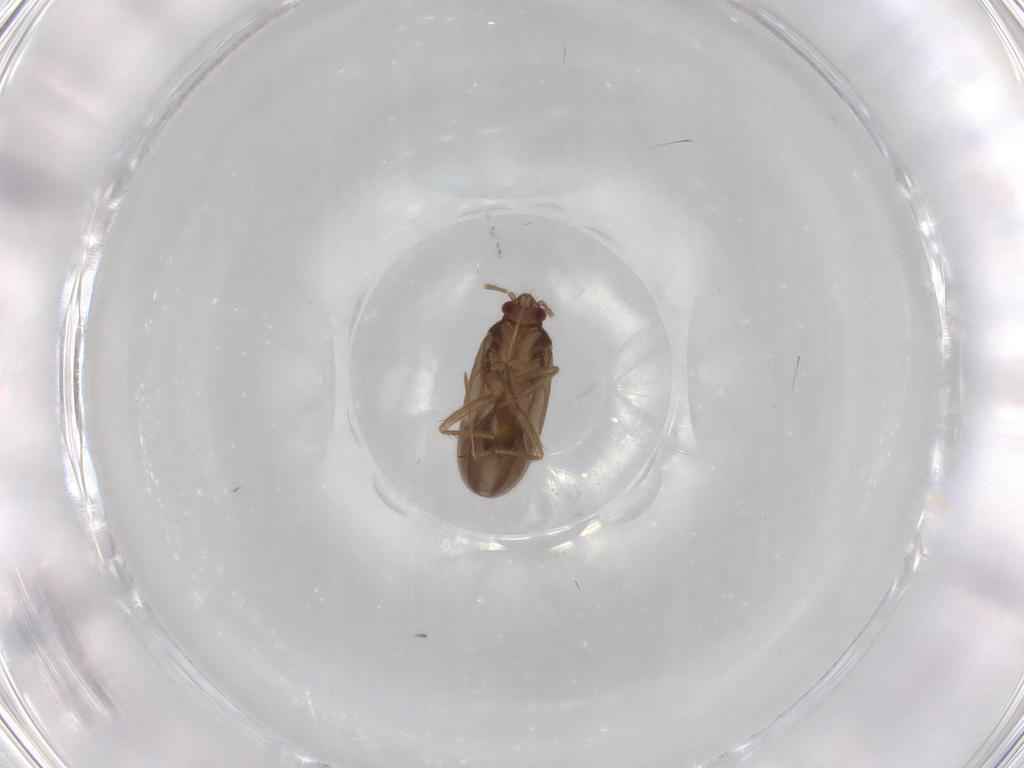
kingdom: Animalia
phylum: Arthropoda
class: Insecta
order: Hemiptera
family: Ceratocombidae
